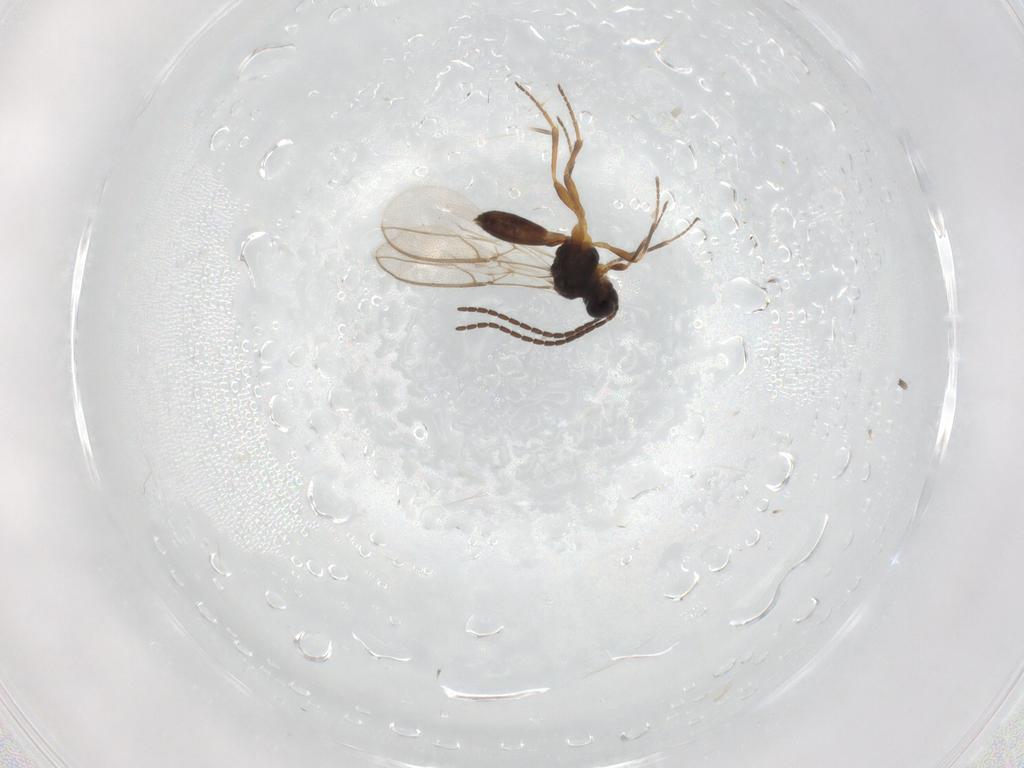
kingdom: Animalia
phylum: Arthropoda
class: Insecta
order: Hymenoptera
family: Braconidae
